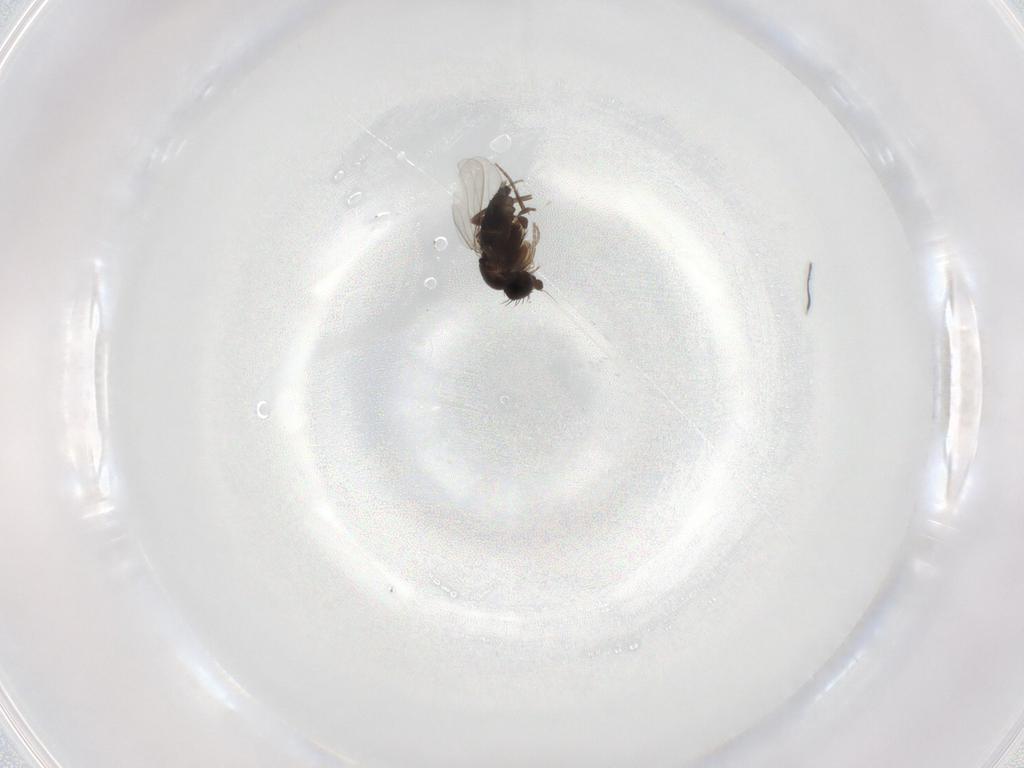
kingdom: Animalia
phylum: Arthropoda
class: Insecta
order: Diptera
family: Phoridae
